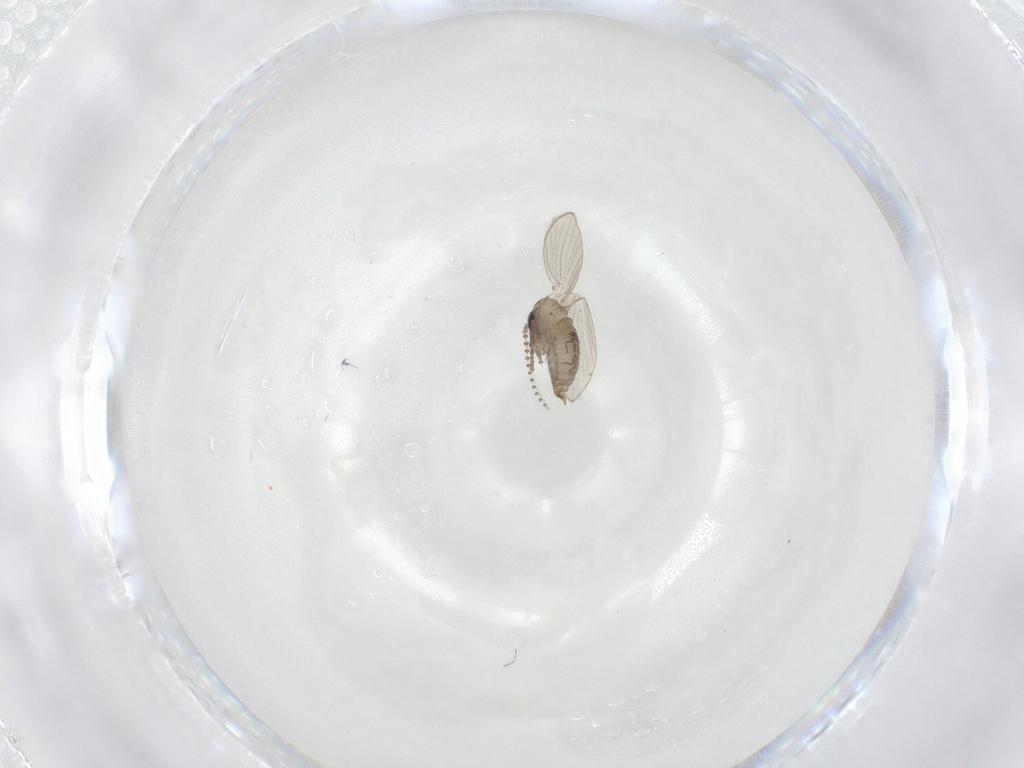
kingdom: Animalia
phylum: Arthropoda
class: Insecta
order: Diptera
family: Psychodidae
